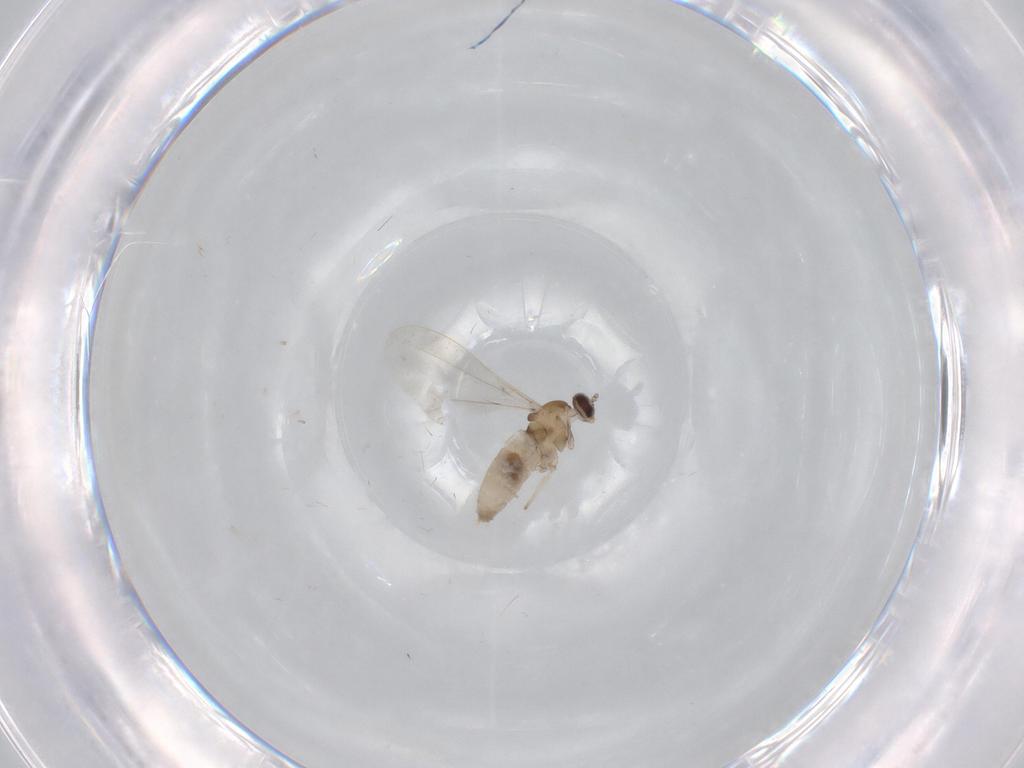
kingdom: Animalia
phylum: Arthropoda
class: Insecta
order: Diptera
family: Cecidomyiidae
